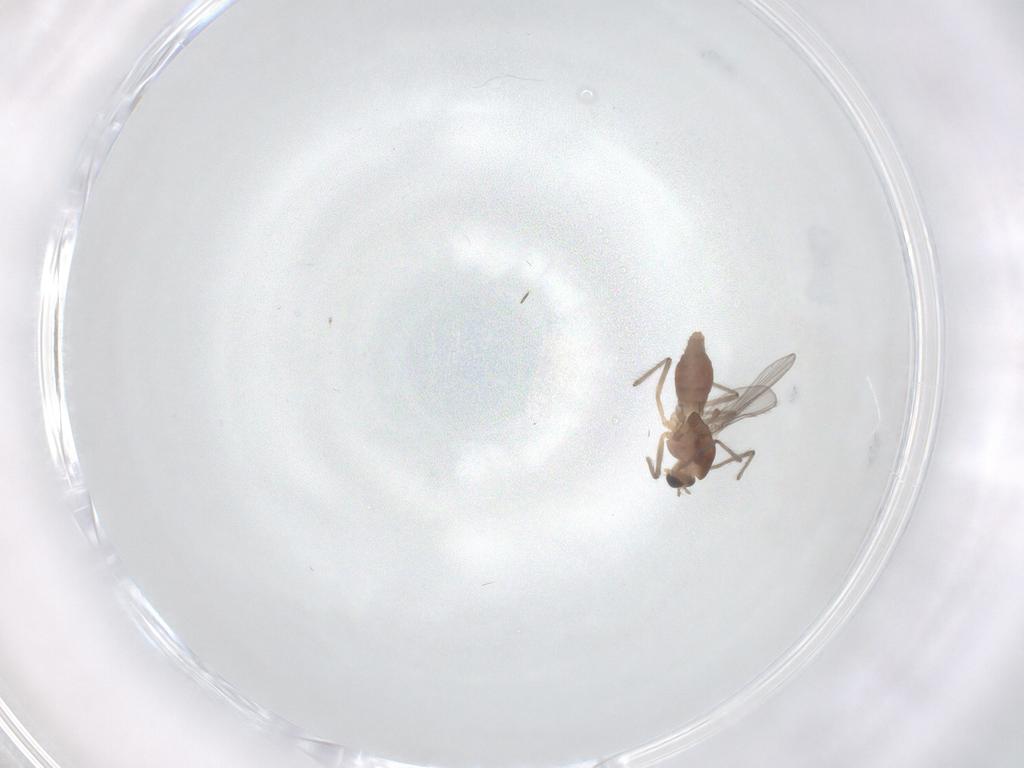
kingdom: Animalia
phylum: Arthropoda
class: Insecta
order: Diptera
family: Chironomidae
